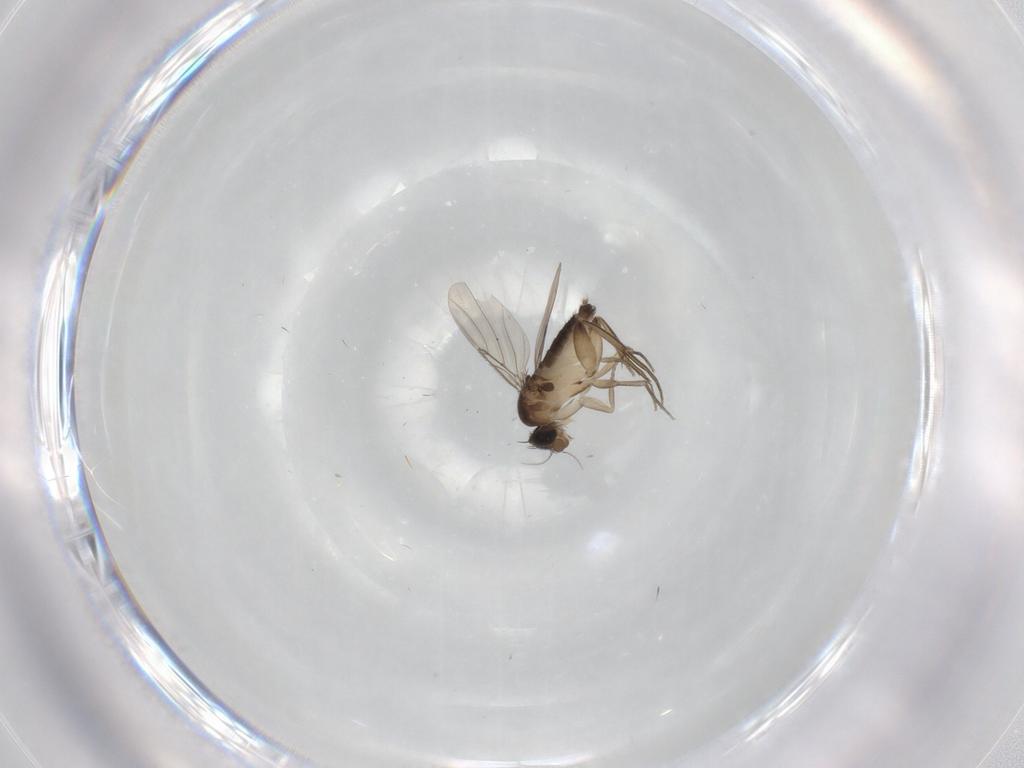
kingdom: Animalia
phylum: Arthropoda
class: Insecta
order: Diptera
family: Phoridae
